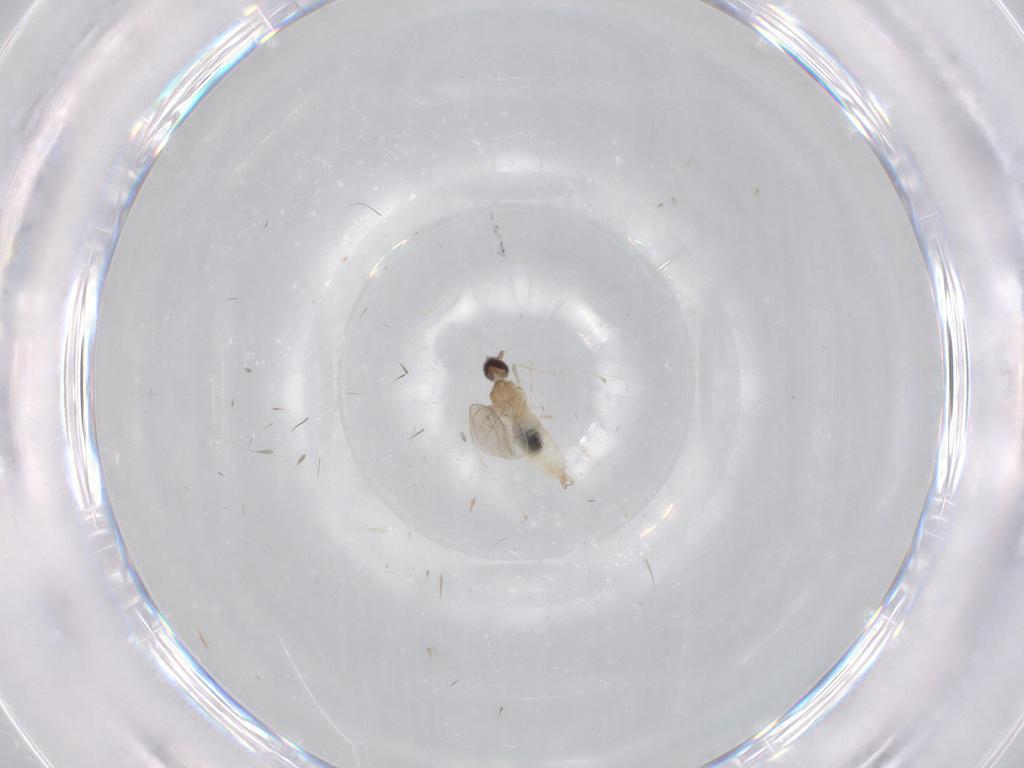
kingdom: Animalia
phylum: Arthropoda
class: Insecta
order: Diptera
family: Cecidomyiidae
